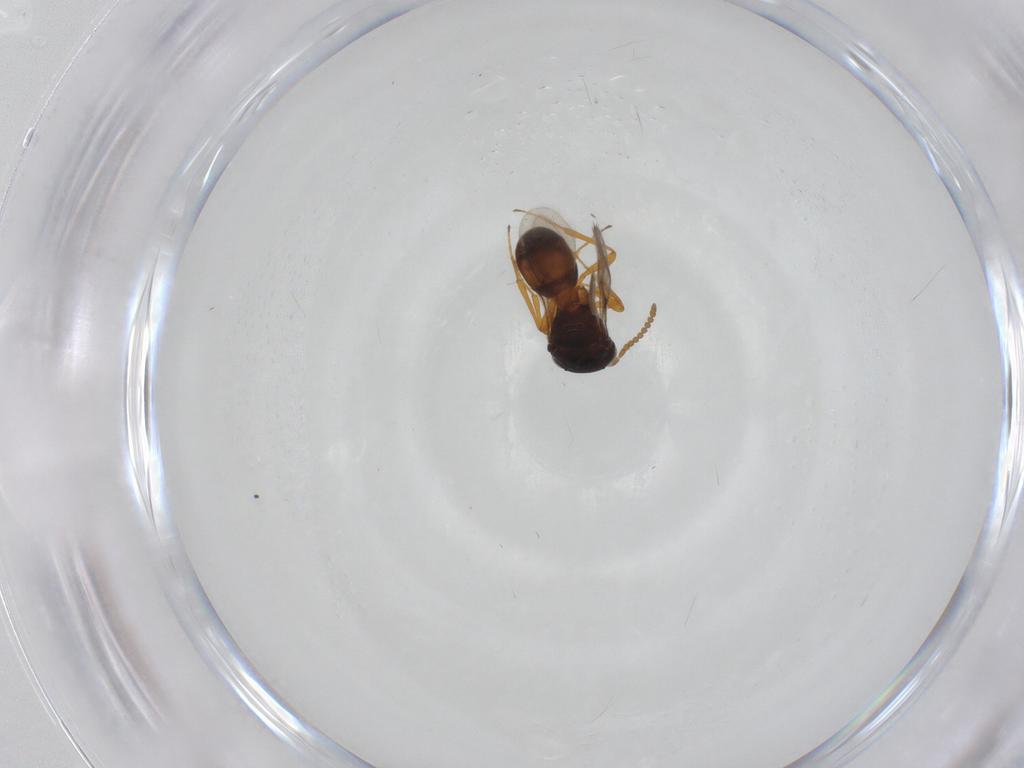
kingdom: Animalia
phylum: Arthropoda
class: Arachnida
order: Araneae
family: Pholcidae
